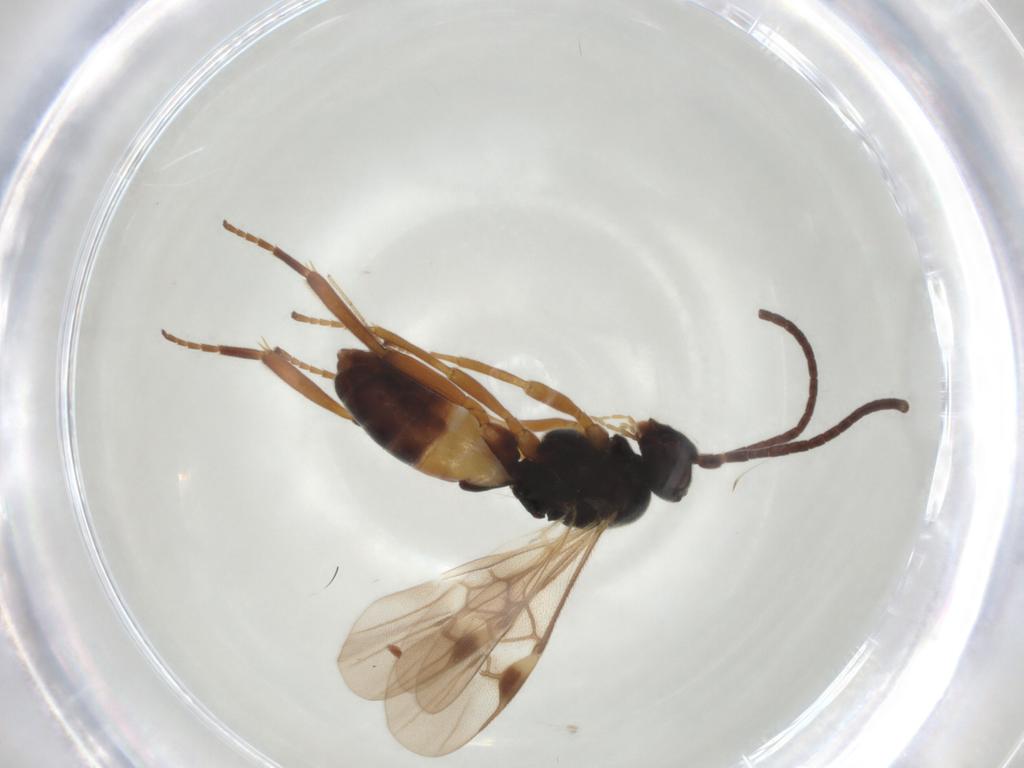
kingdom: Animalia
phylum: Arthropoda
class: Insecta
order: Hymenoptera
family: Braconidae
